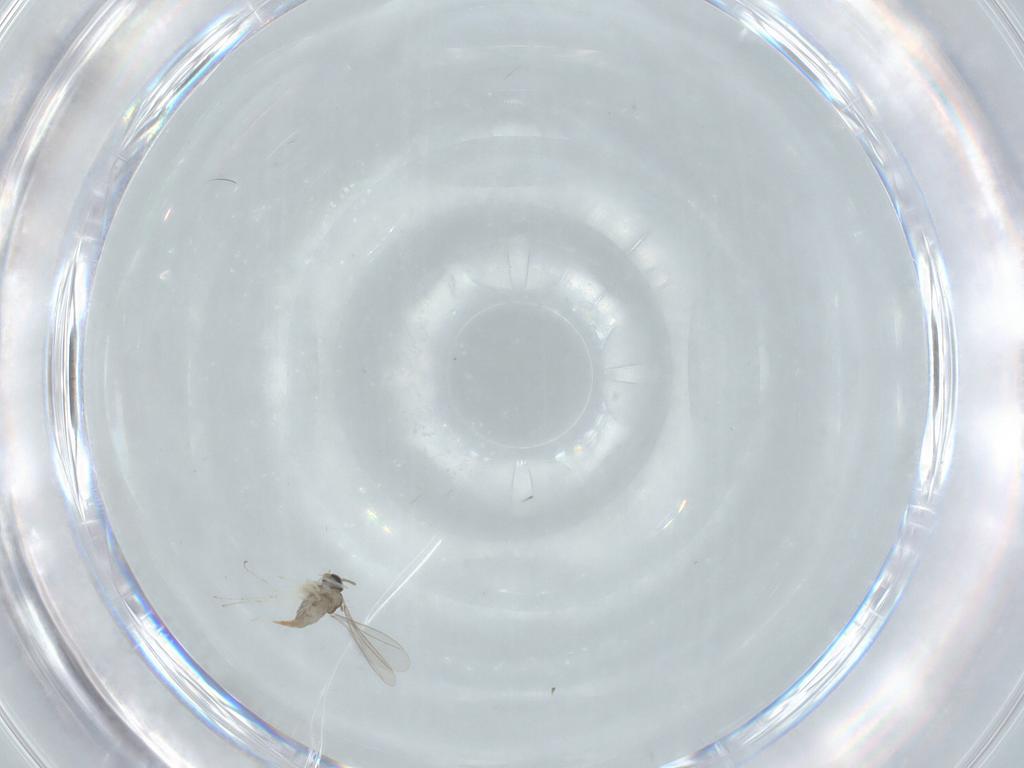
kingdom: Animalia
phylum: Arthropoda
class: Insecta
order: Diptera
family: Cecidomyiidae
